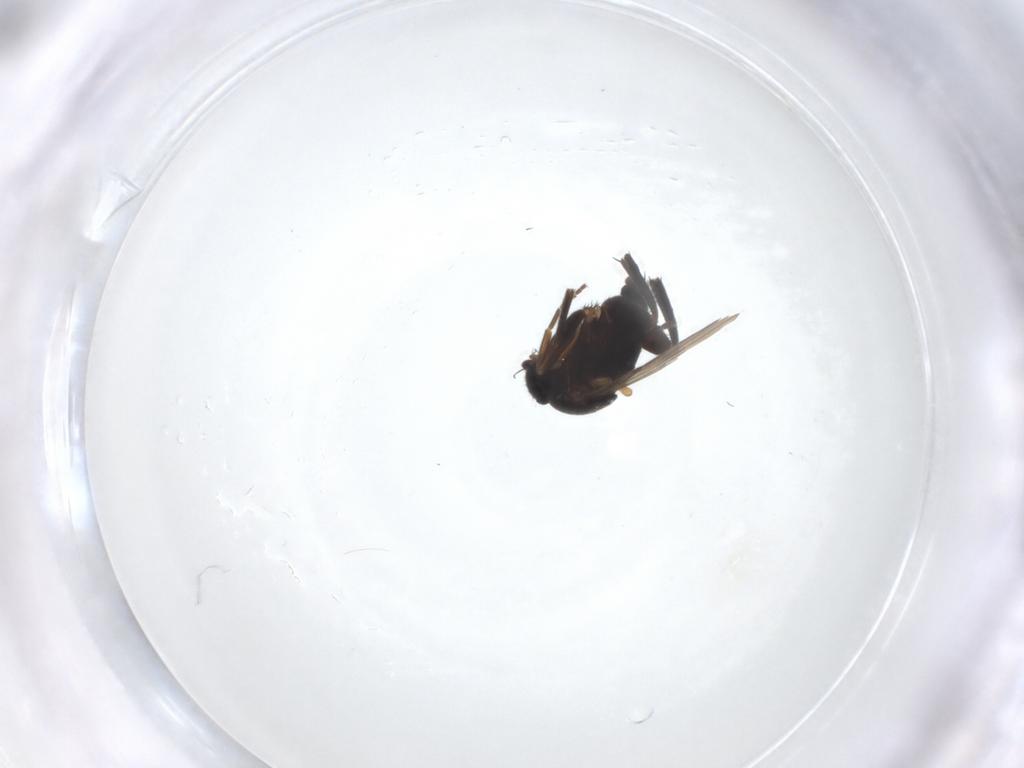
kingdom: Animalia
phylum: Arthropoda
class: Insecta
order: Diptera
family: Phoridae
